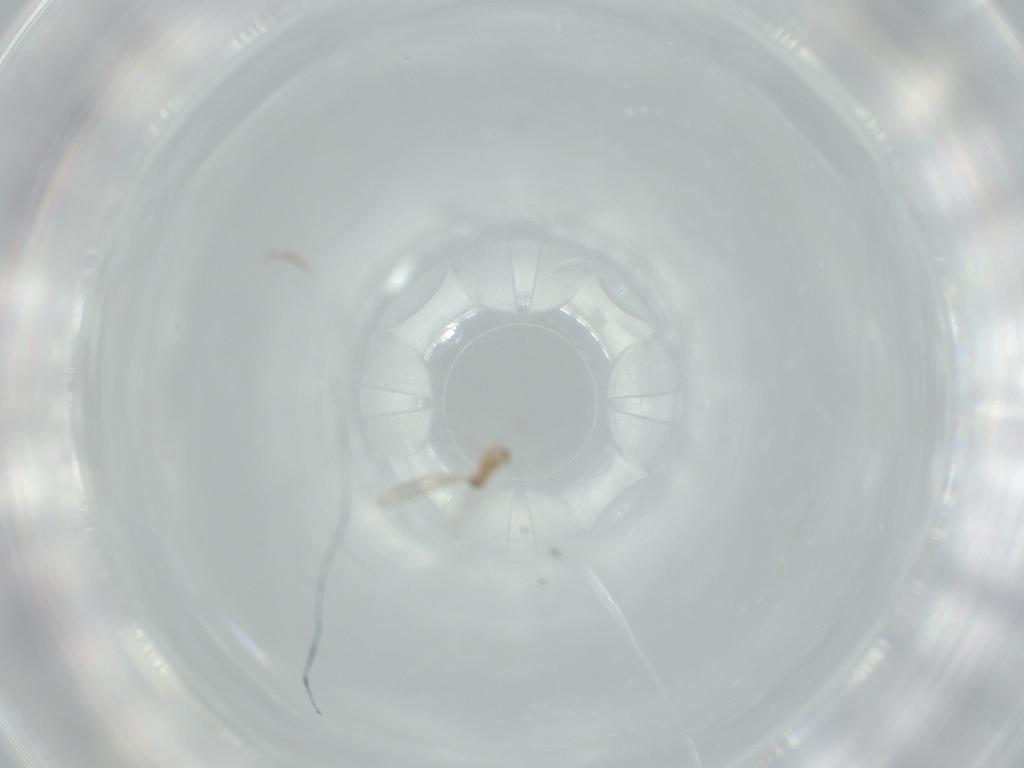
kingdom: Animalia
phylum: Arthropoda
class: Insecta
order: Diptera
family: Cecidomyiidae
